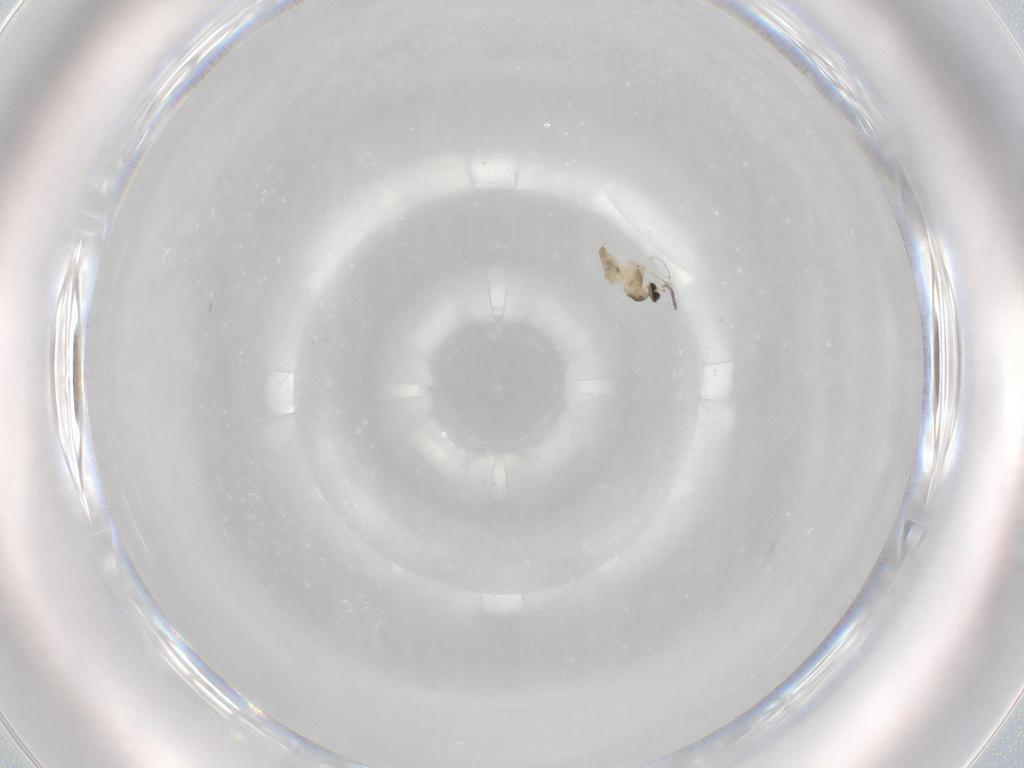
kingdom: Animalia
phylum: Arthropoda
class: Insecta
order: Diptera
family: Cecidomyiidae
